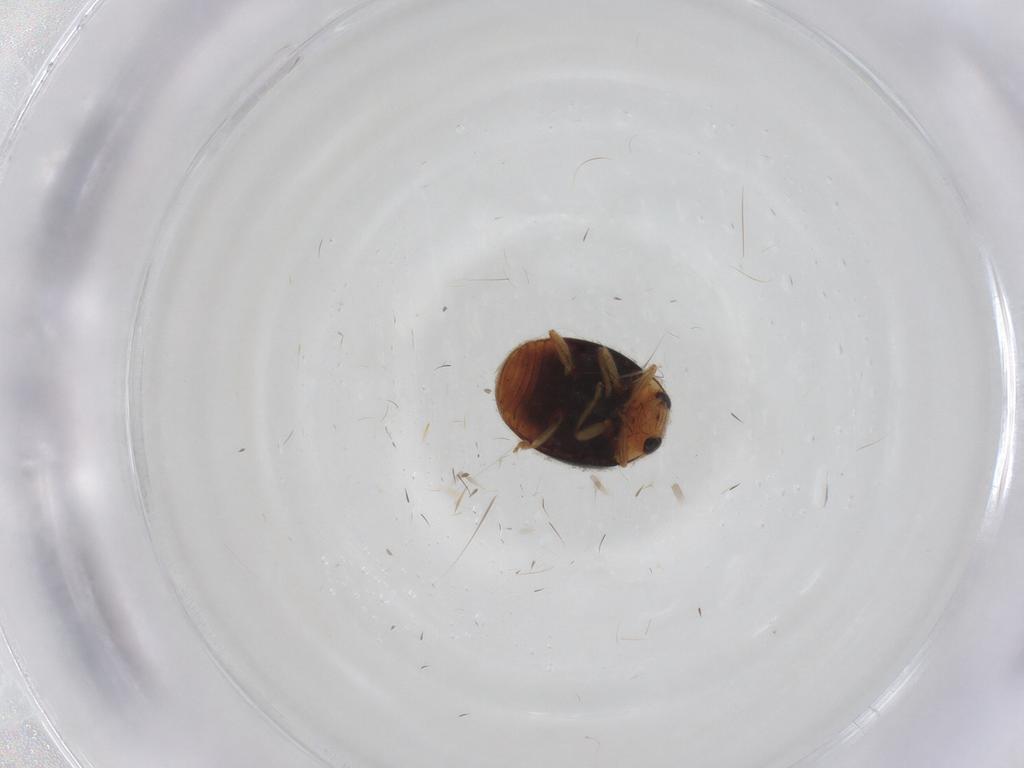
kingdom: Animalia
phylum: Arthropoda
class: Insecta
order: Coleoptera
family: Coccinellidae
